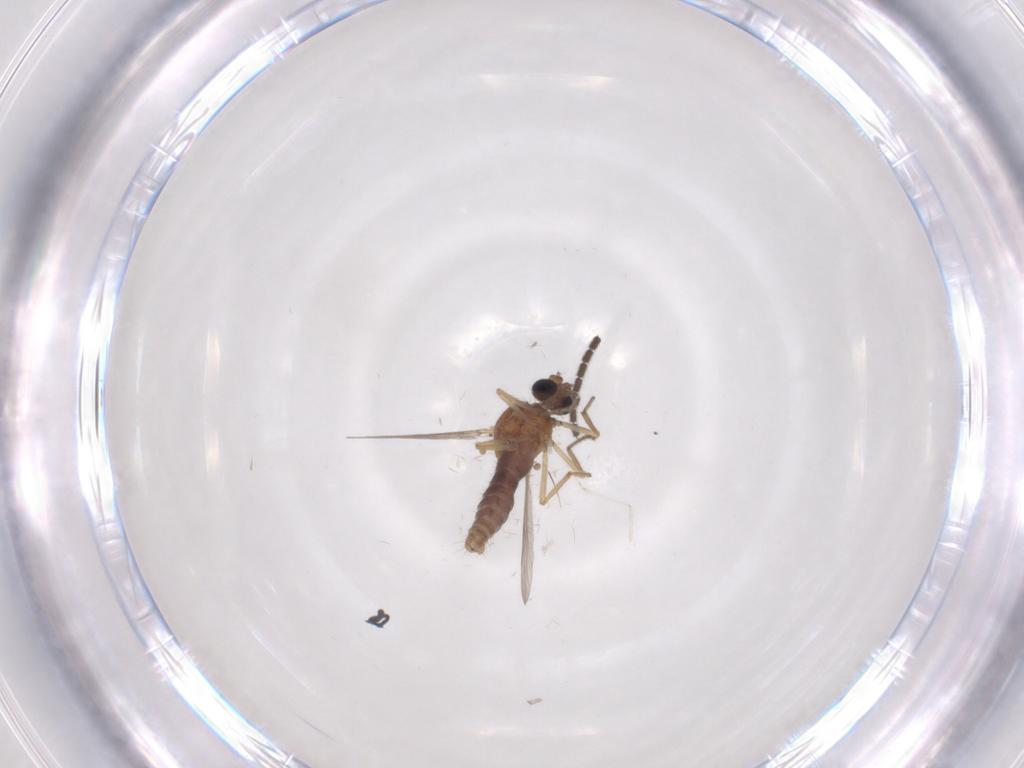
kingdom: Animalia
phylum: Arthropoda
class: Insecta
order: Diptera
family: Ceratopogonidae
